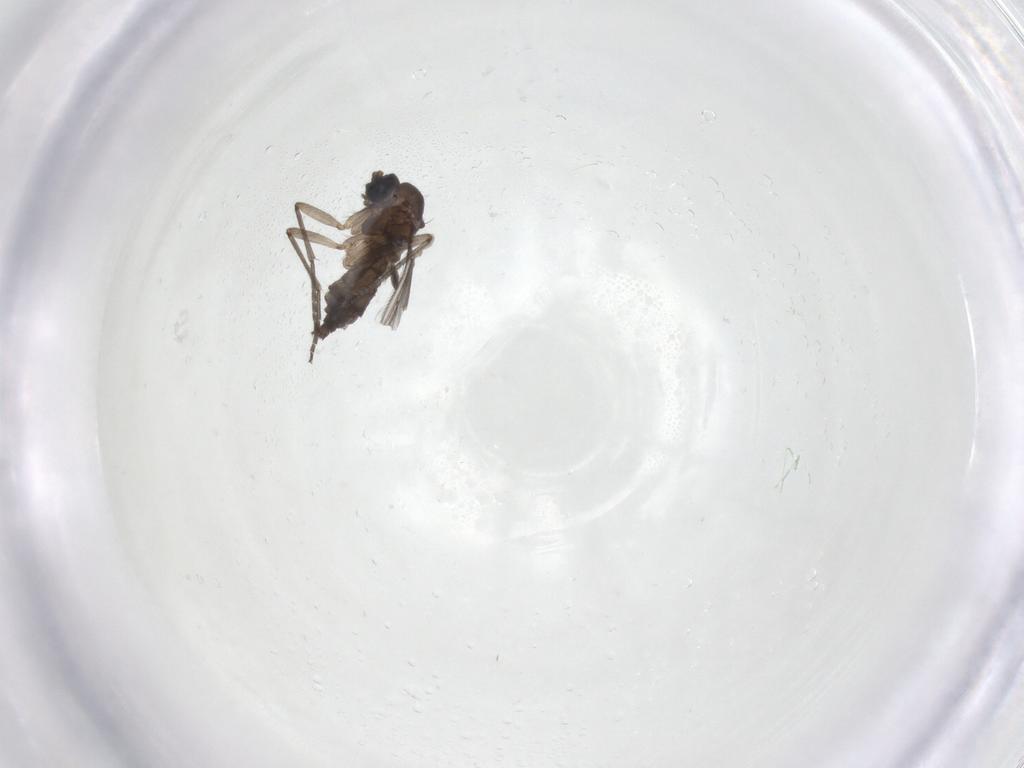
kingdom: Animalia
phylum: Arthropoda
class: Insecta
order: Diptera
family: Sciaridae
